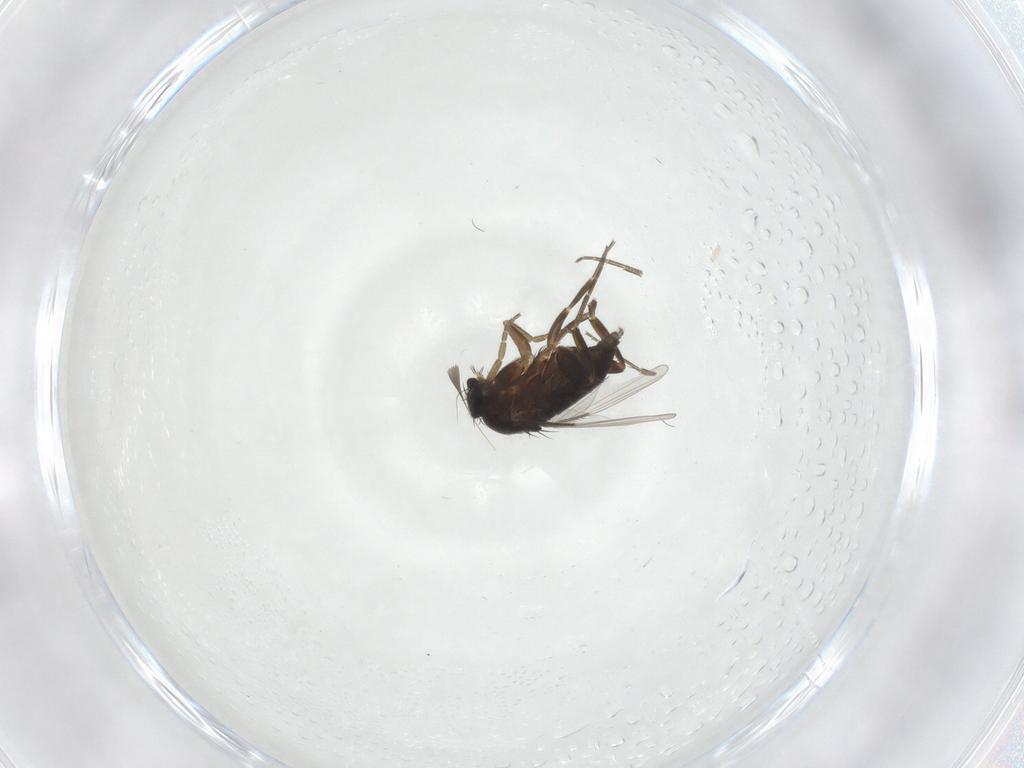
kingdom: Animalia
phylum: Arthropoda
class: Insecta
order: Diptera
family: Phoridae
